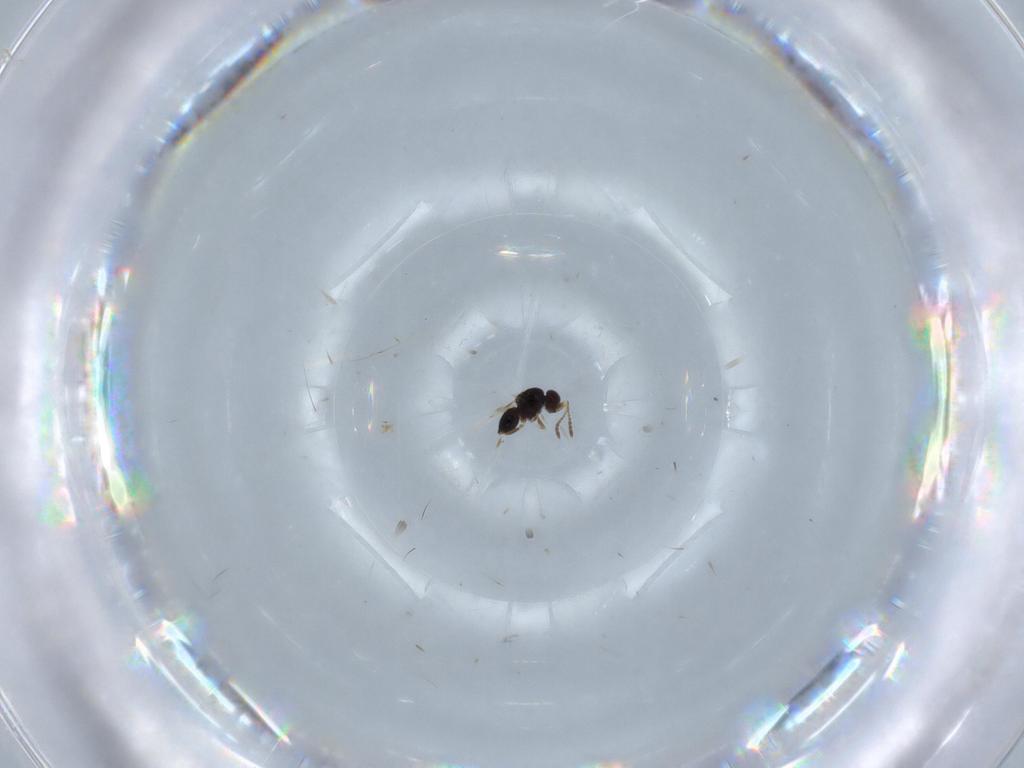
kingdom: Animalia
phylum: Arthropoda
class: Insecta
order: Hymenoptera
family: Ceraphronidae
